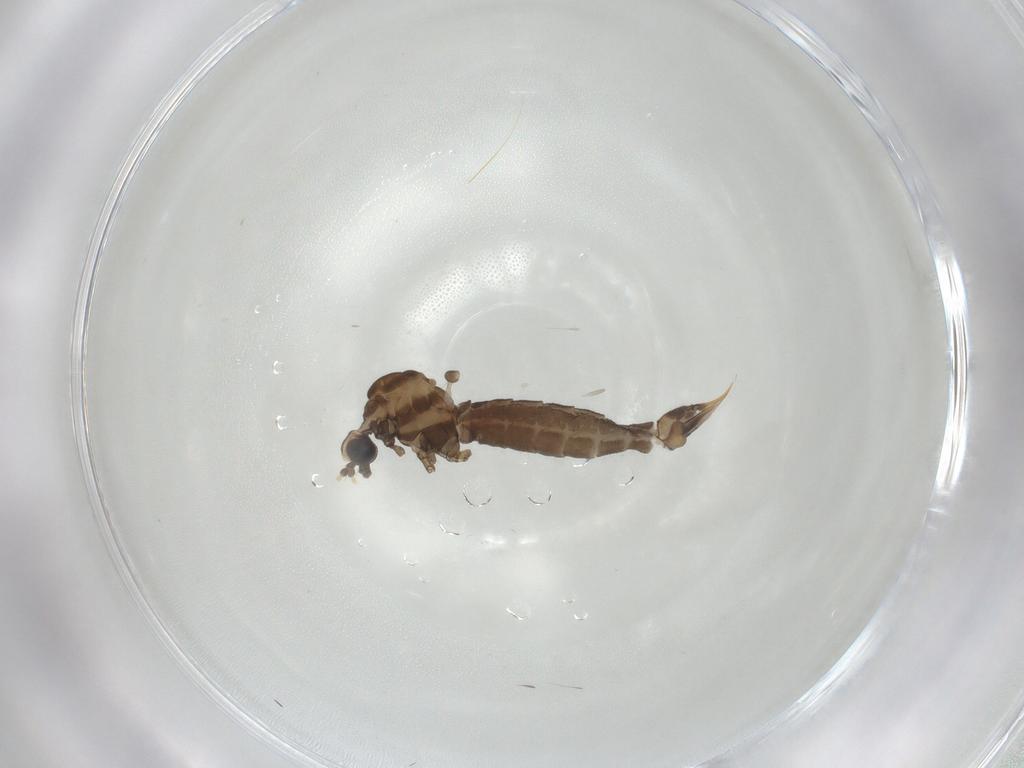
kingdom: Animalia
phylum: Arthropoda
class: Insecta
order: Diptera
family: Limoniidae
